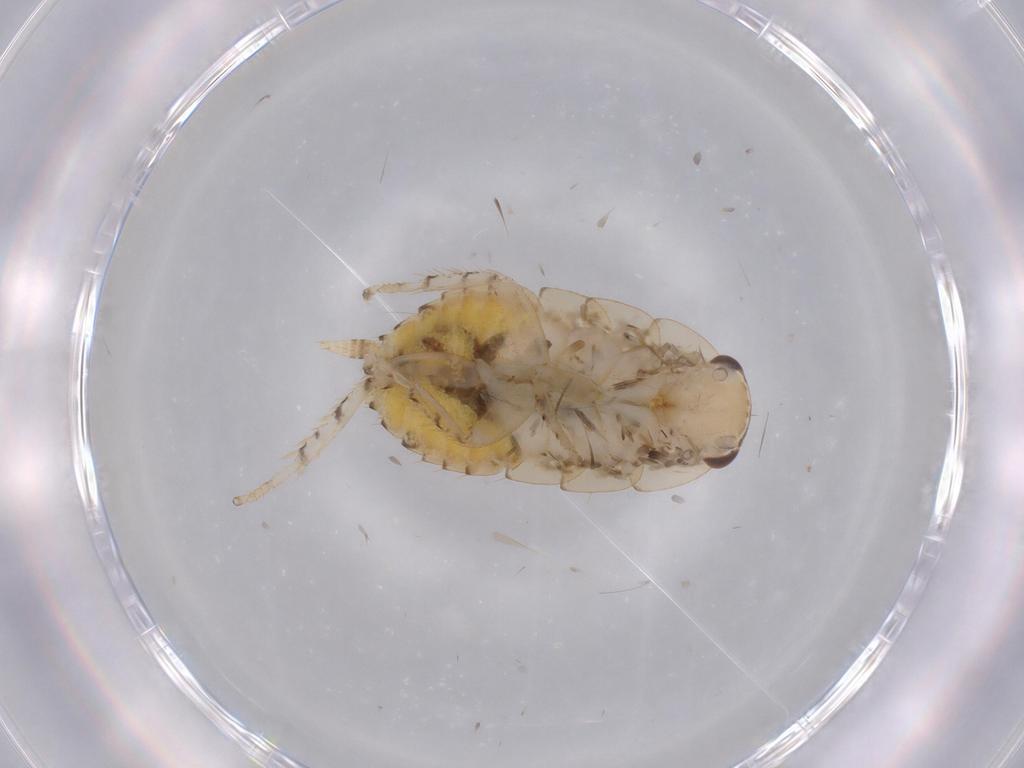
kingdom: Animalia
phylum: Arthropoda
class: Insecta
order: Blattodea
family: Ectobiidae
